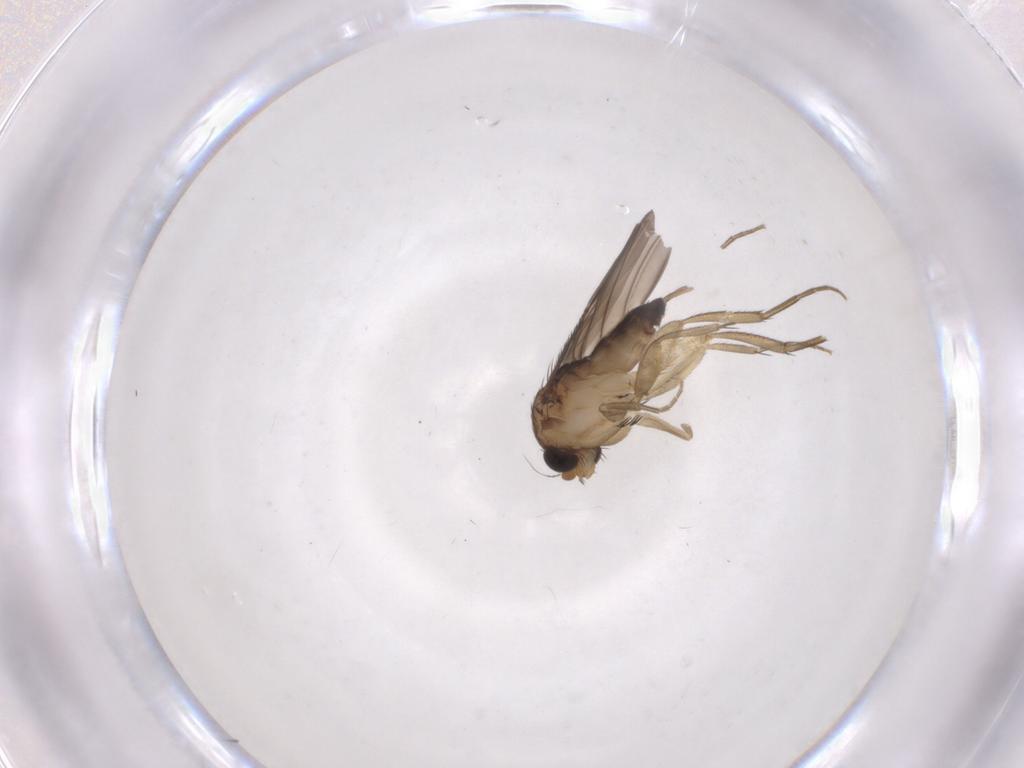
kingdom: Animalia
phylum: Arthropoda
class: Insecta
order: Diptera
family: Phoridae
